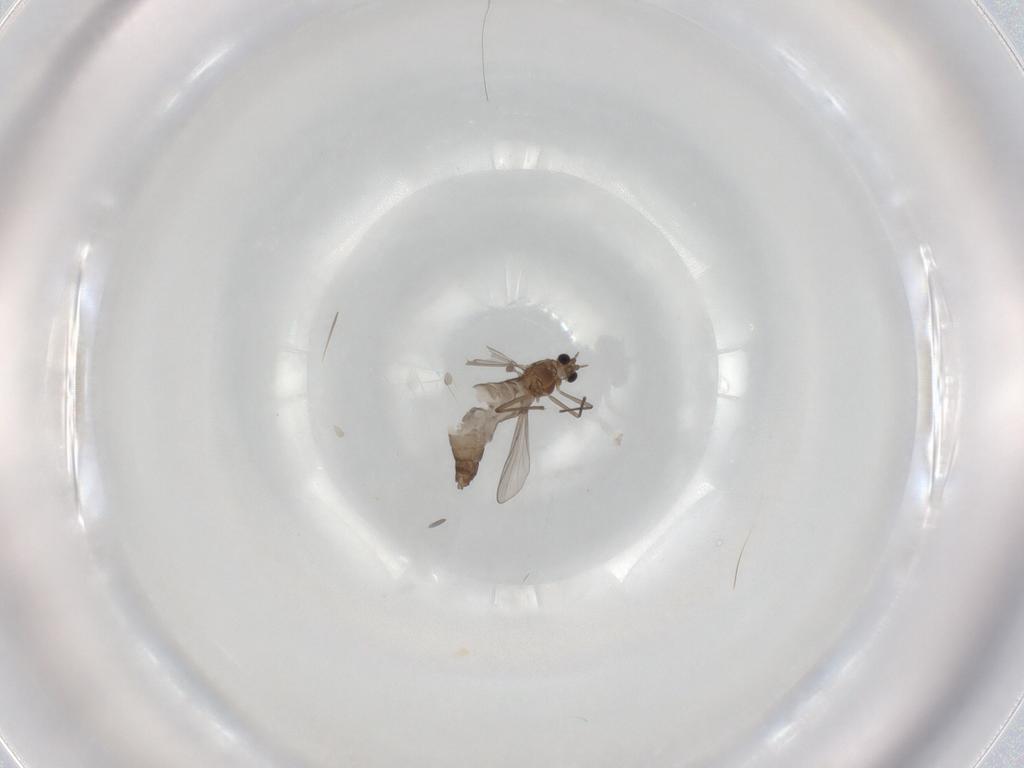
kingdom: Animalia
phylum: Arthropoda
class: Insecta
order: Diptera
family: Chironomidae
